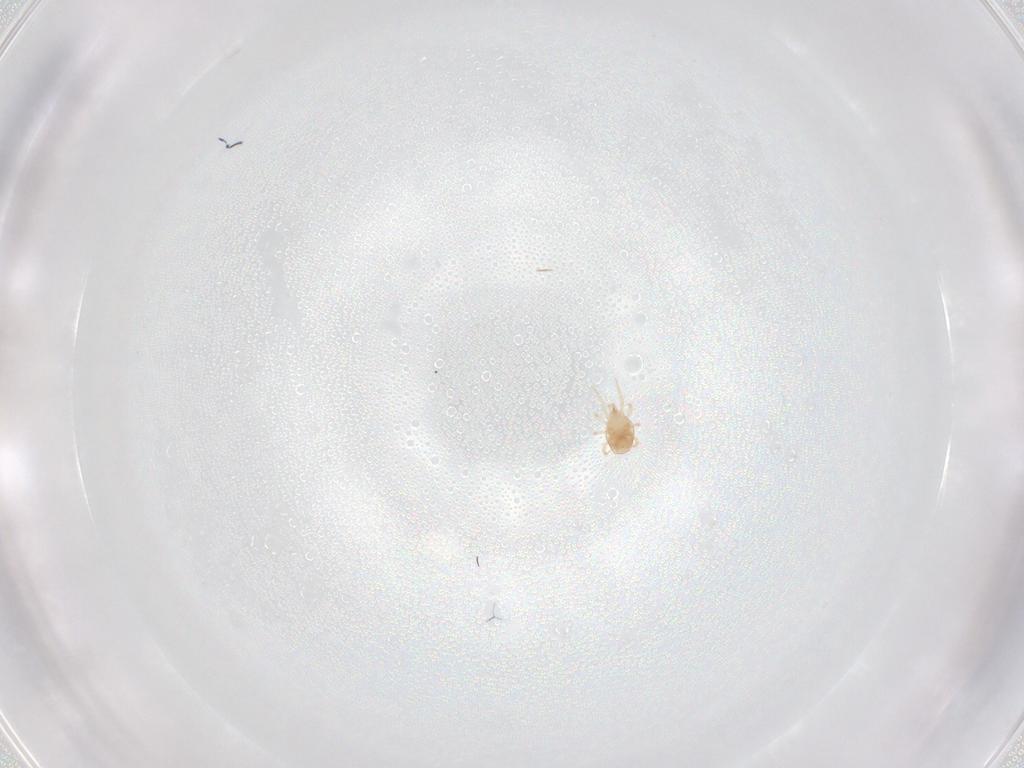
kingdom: Animalia
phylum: Arthropoda
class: Arachnida
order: Mesostigmata
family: Phytoseiidae
